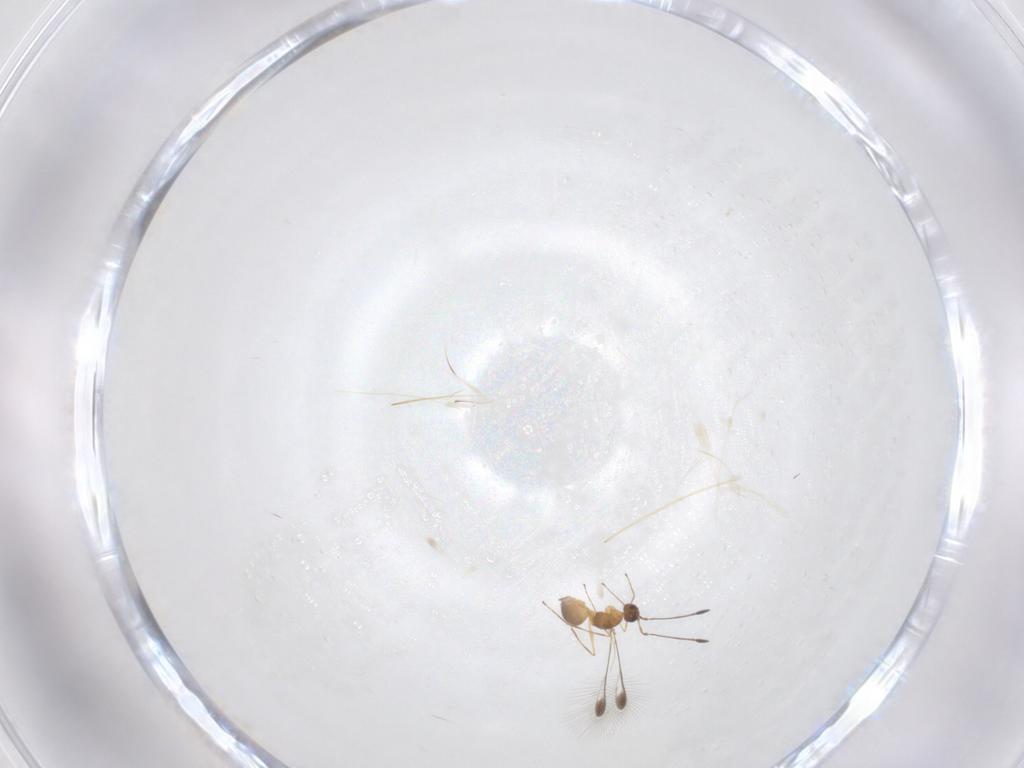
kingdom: Animalia
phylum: Arthropoda
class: Insecta
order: Hymenoptera
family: Mymaridae
